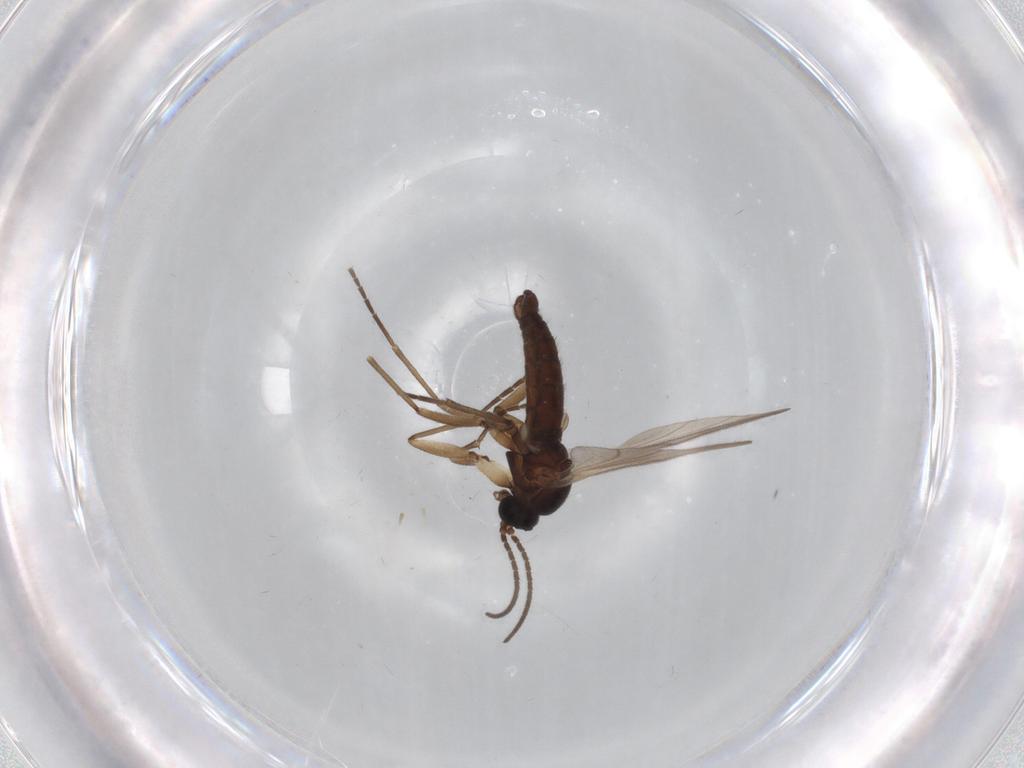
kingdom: Animalia
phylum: Arthropoda
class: Insecta
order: Diptera
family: Sciaridae
